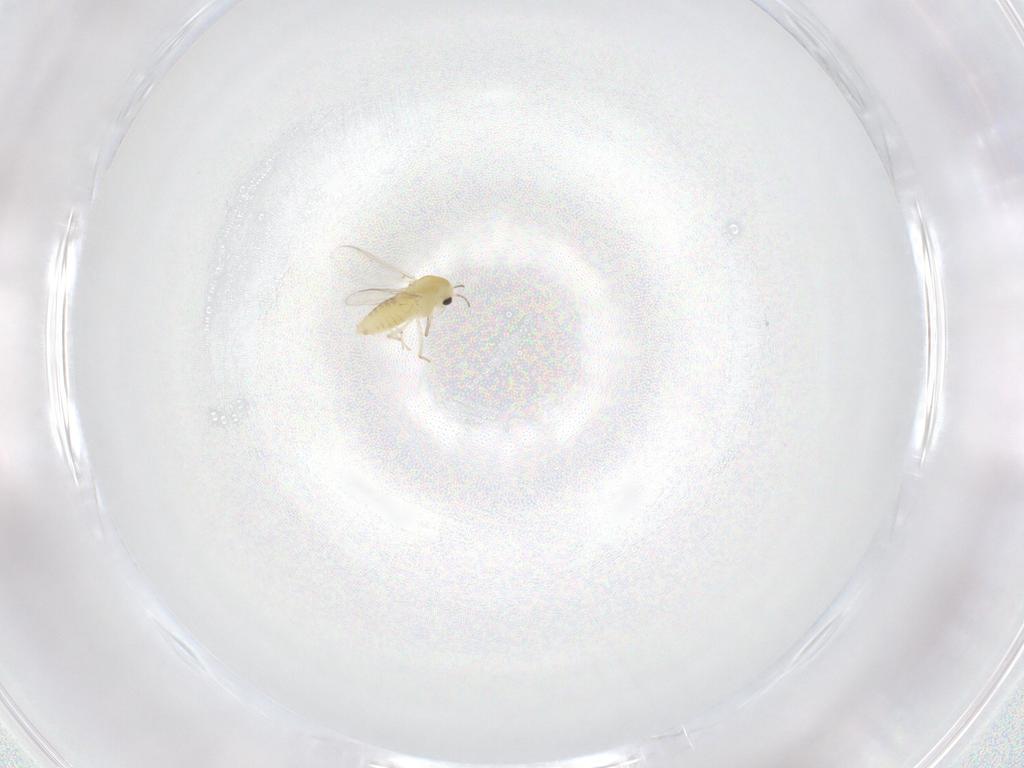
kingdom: Animalia
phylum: Arthropoda
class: Insecta
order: Diptera
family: Chironomidae
